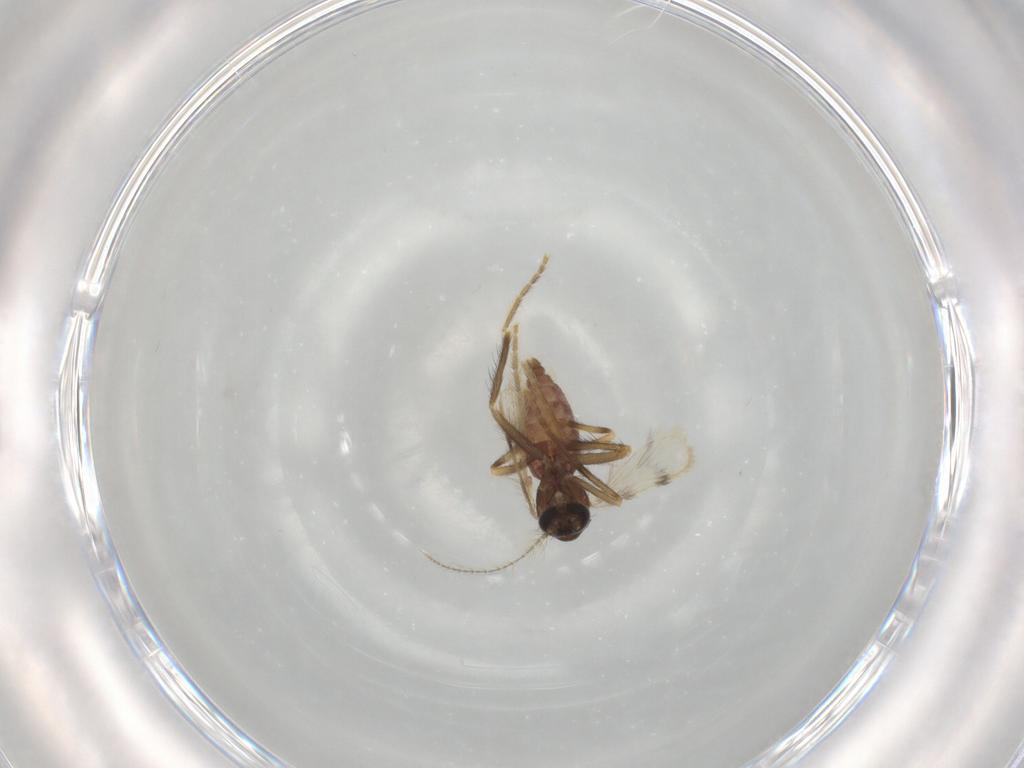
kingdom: Animalia
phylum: Arthropoda
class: Insecta
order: Diptera
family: Corethrellidae
